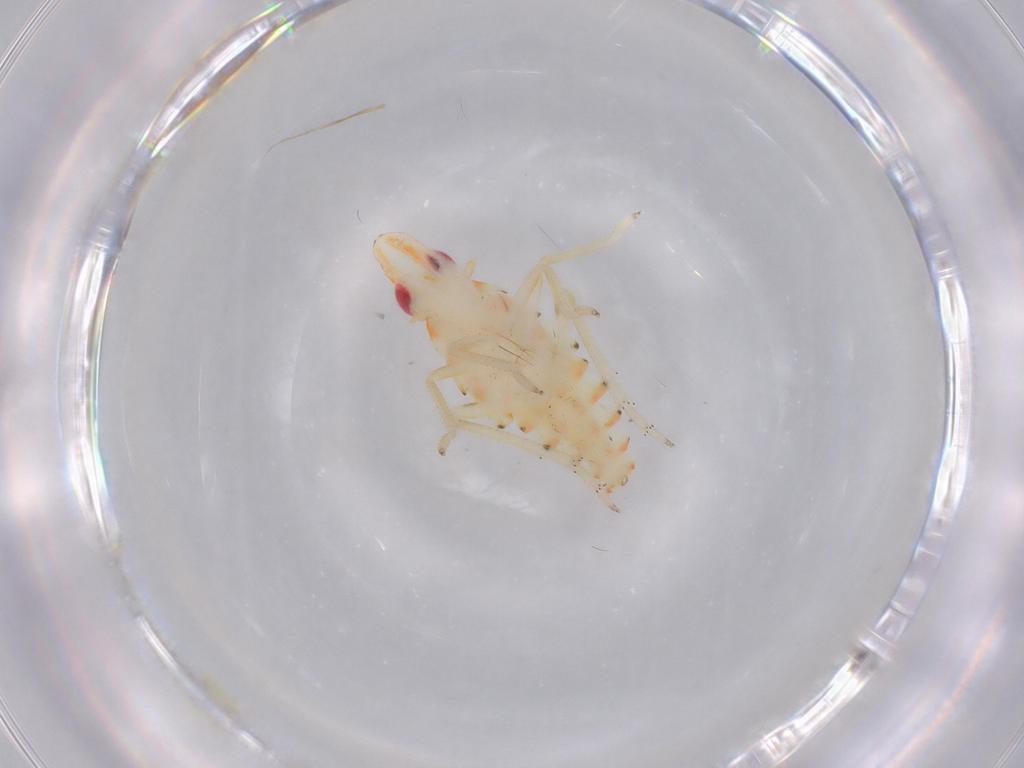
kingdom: Animalia
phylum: Arthropoda
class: Insecta
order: Hemiptera
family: Tropiduchidae
